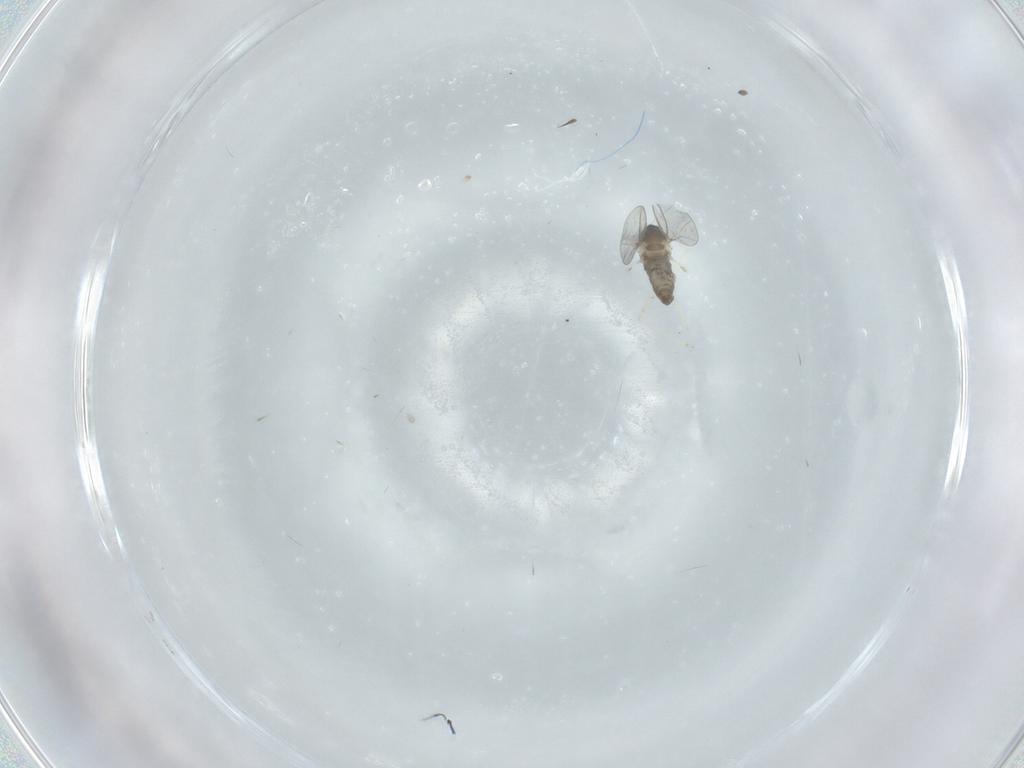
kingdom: Animalia
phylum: Arthropoda
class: Insecta
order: Diptera
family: Cecidomyiidae
